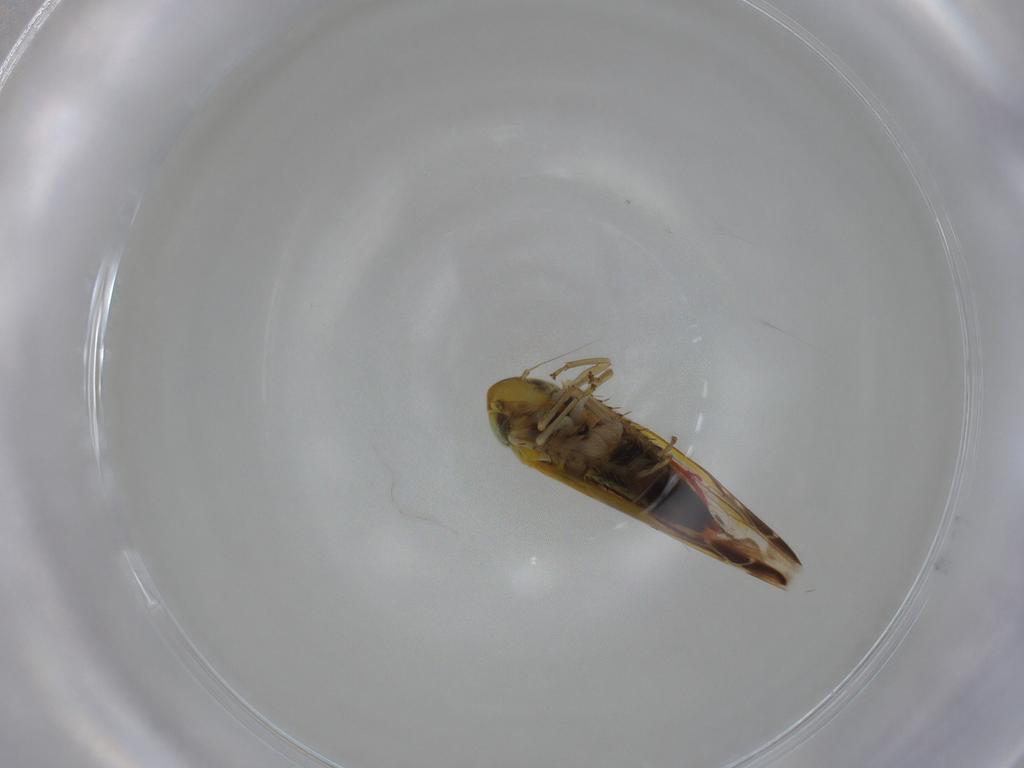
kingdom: Animalia
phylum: Arthropoda
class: Insecta
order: Hemiptera
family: Cicadellidae
